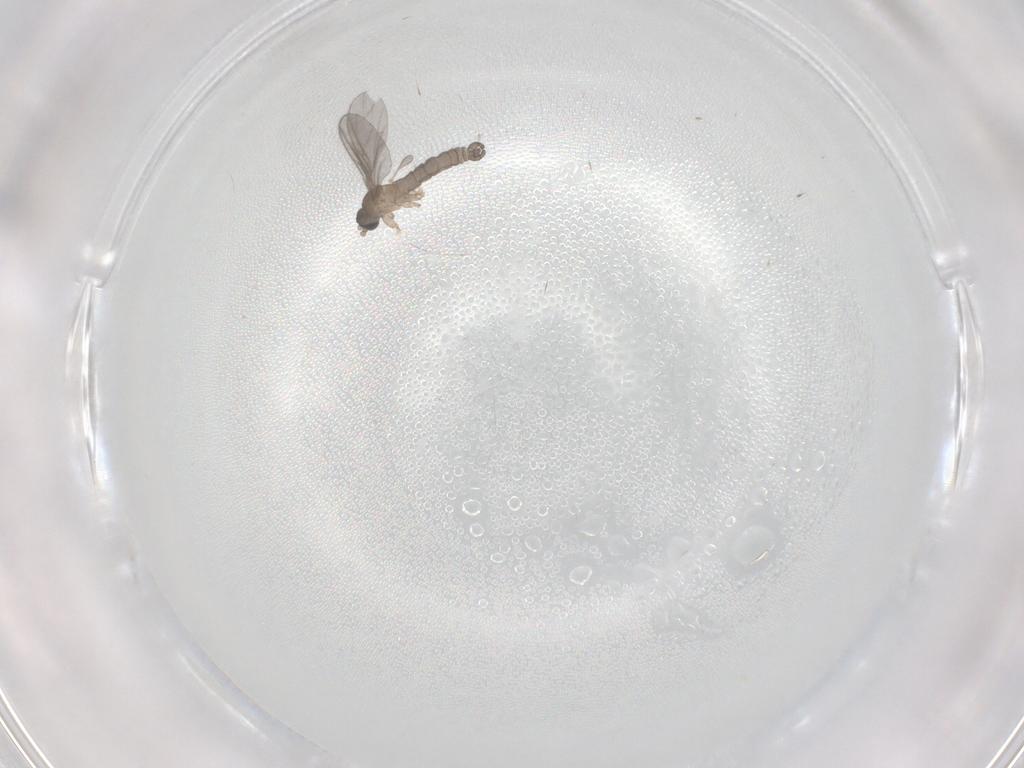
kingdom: Animalia
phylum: Arthropoda
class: Insecta
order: Diptera
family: Sciaridae
